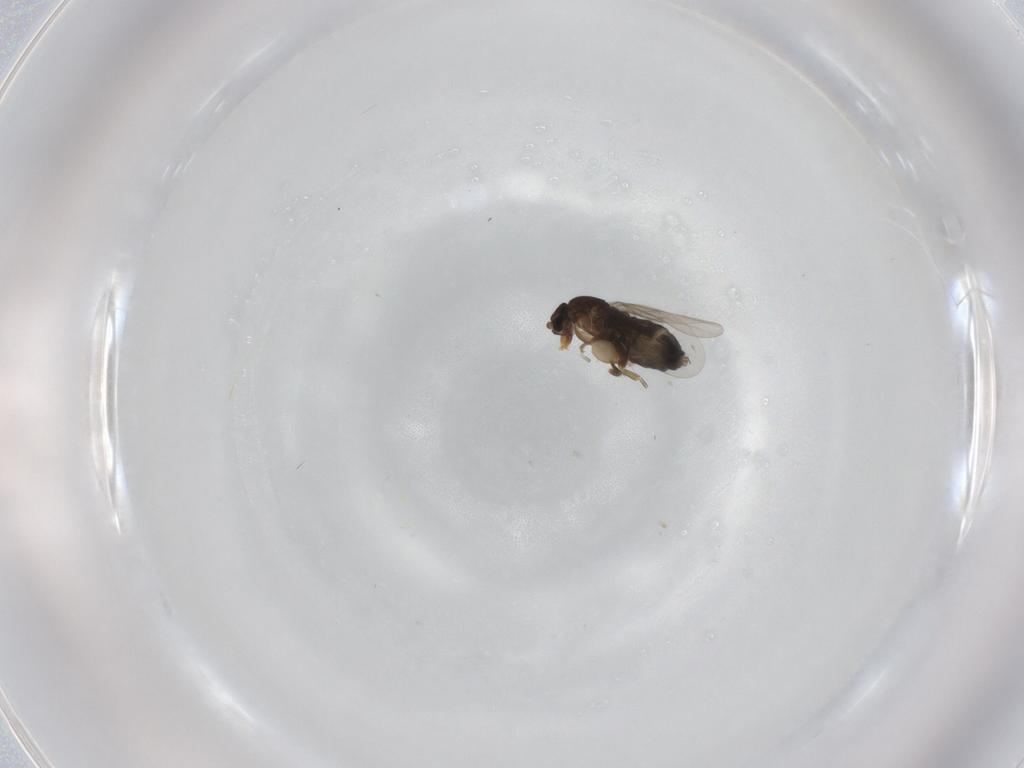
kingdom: Animalia
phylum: Arthropoda
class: Insecta
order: Diptera
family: Phoridae
